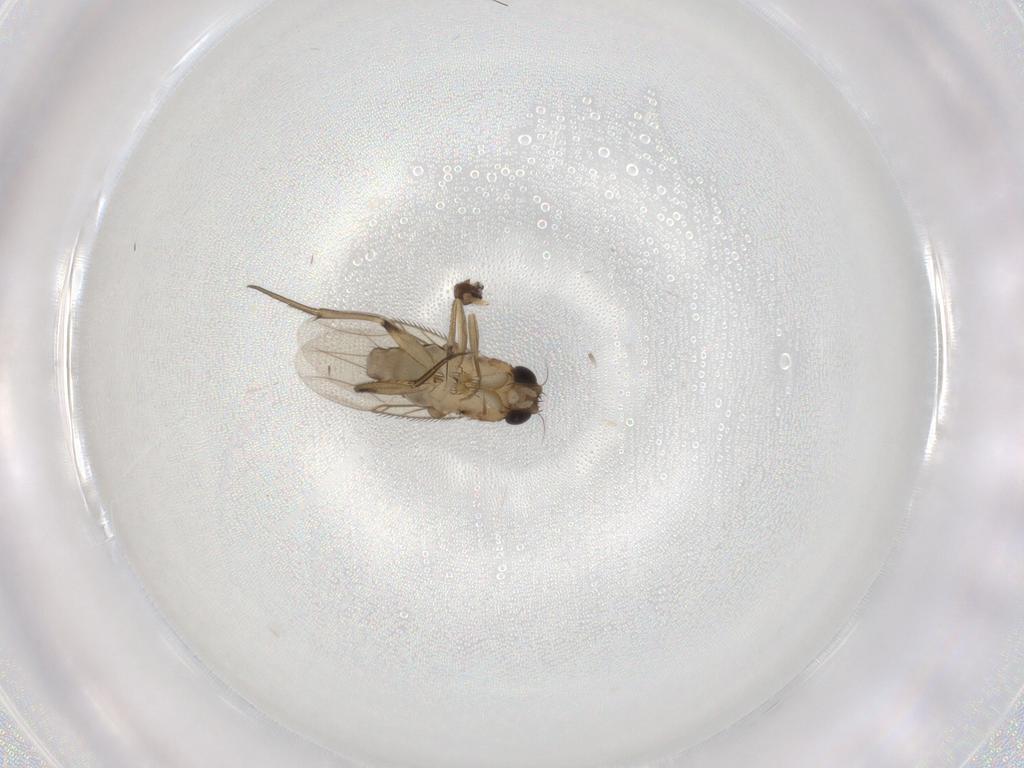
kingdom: Animalia
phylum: Arthropoda
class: Insecta
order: Diptera
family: Phoridae
